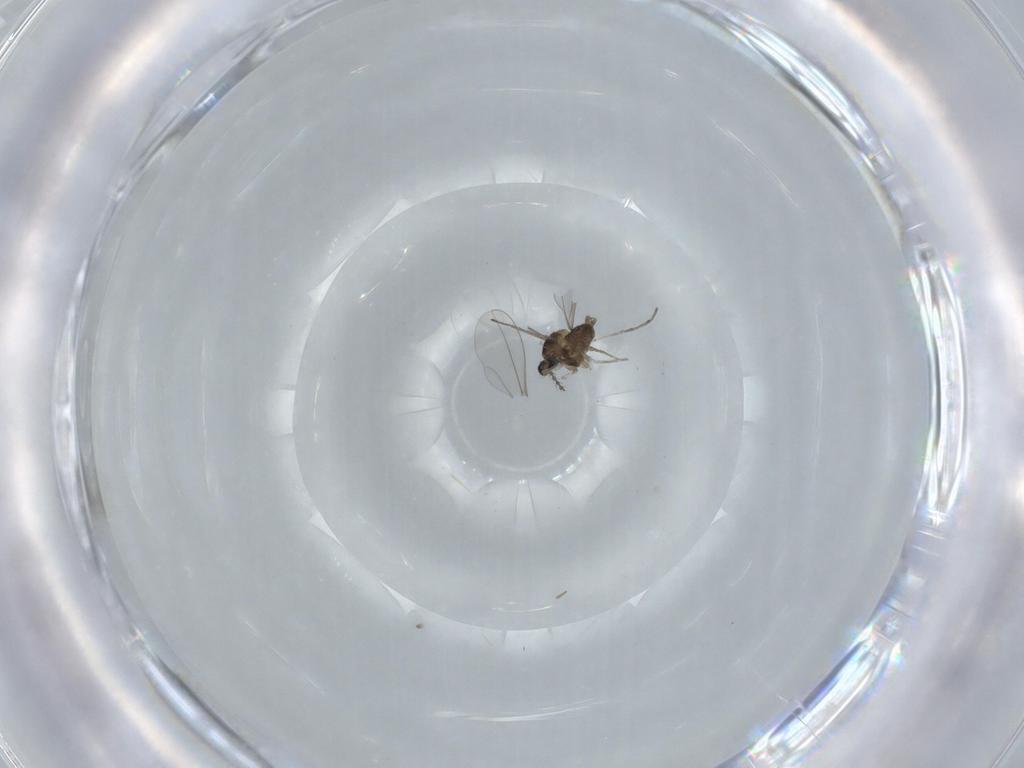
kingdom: Animalia
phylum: Arthropoda
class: Insecta
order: Diptera
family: Cecidomyiidae
